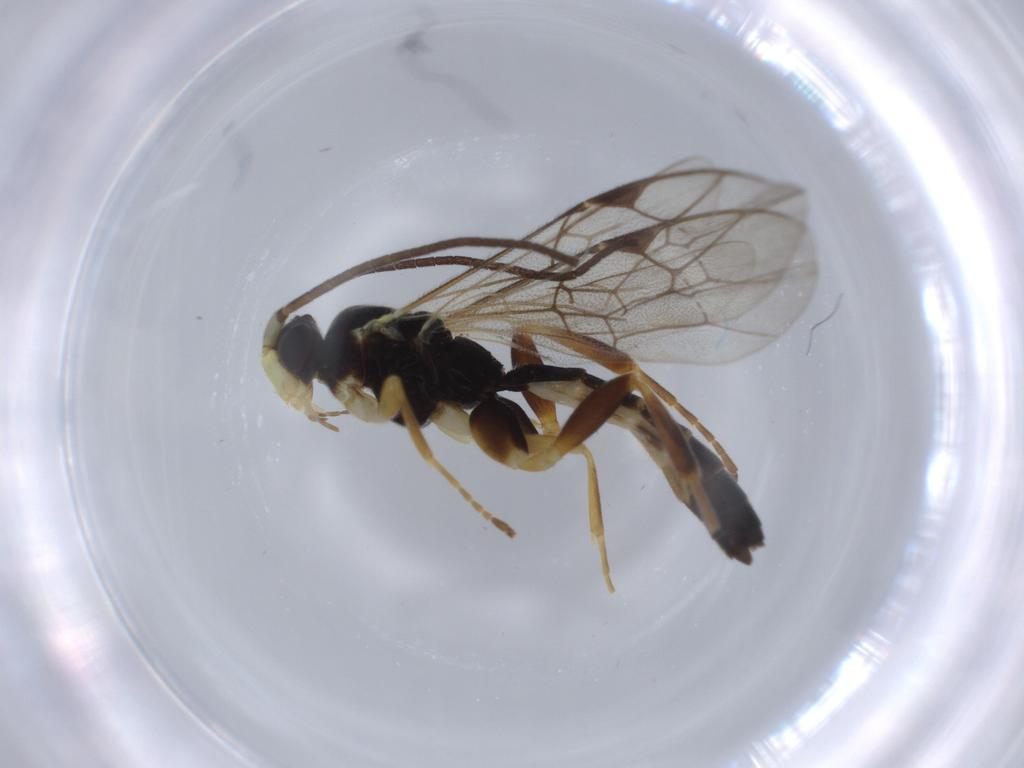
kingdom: Animalia
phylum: Arthropoda
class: Insecta
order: Hymenoptera
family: Ichneumonidae
